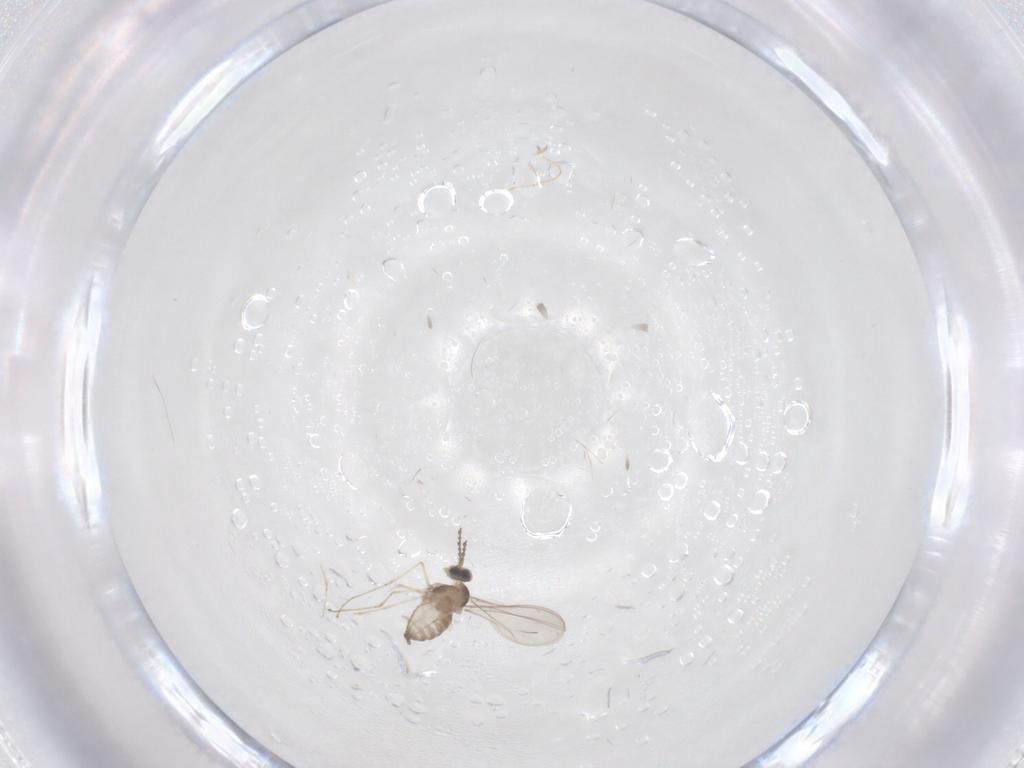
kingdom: Animalia
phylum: Arthropoda
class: Insecta
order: Diptera
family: Cecidomyiidae
